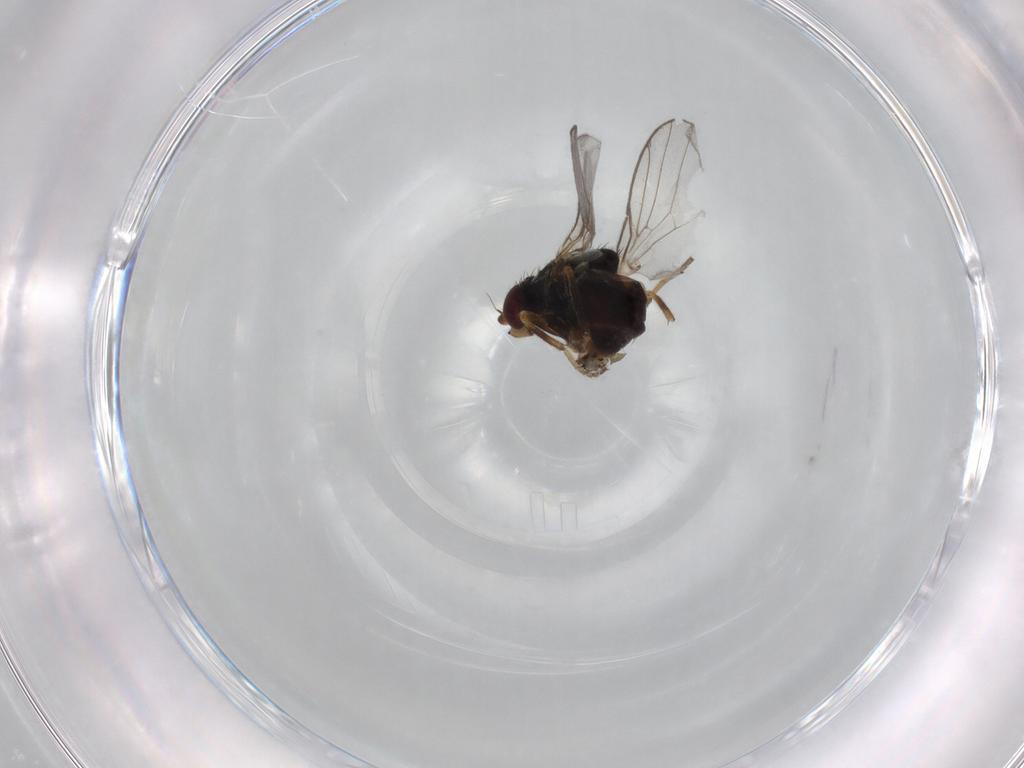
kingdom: Animalia
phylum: Arthropoda
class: Insecta
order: Diptera
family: Chloropidae
